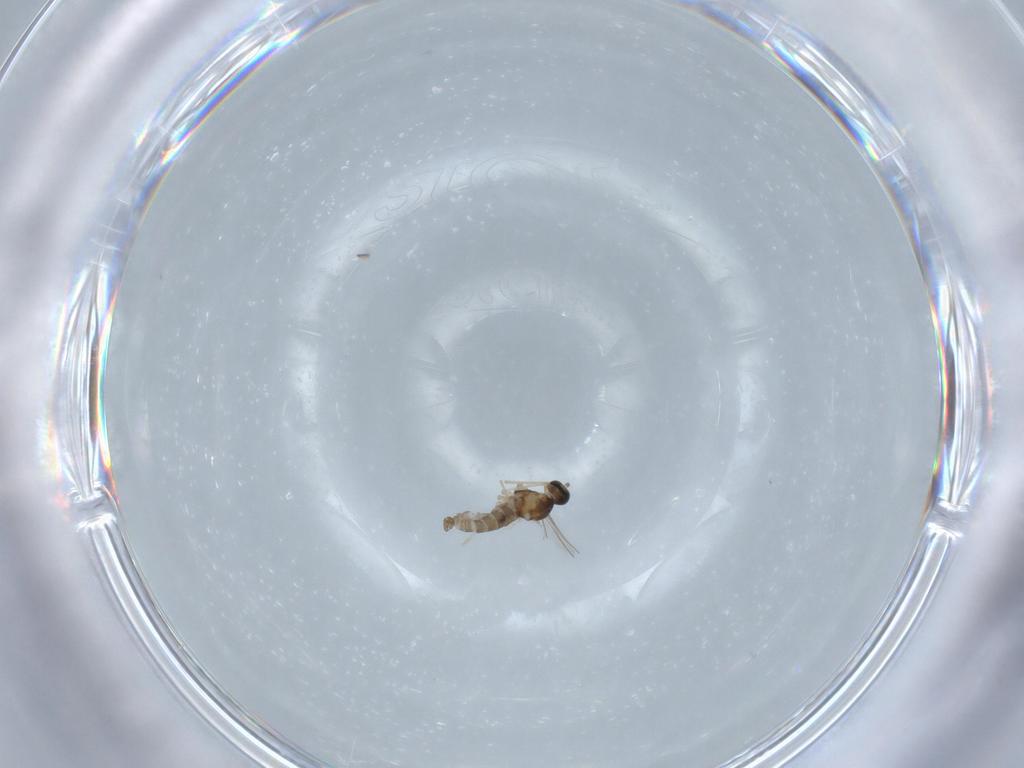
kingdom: Animalia
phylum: Arthropoda
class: Insecta
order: Diptera
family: Cecidomyiidae
